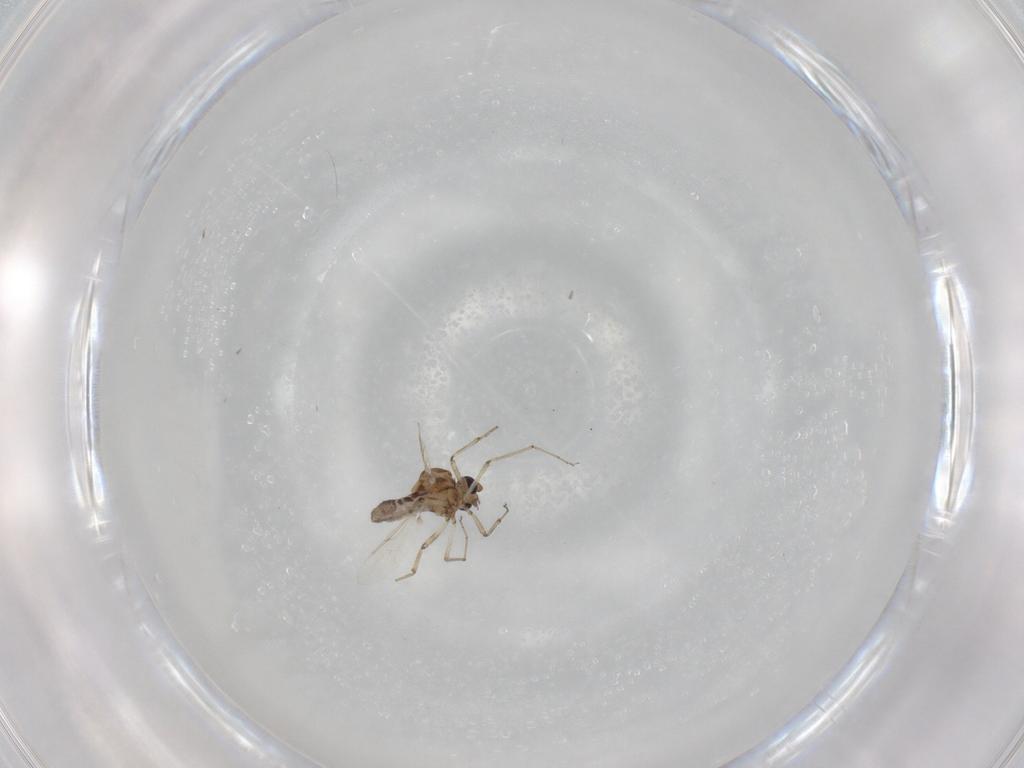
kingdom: Animalia
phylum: Arthropoda
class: Insecta
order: Diptera
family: Ceratopogonidae
